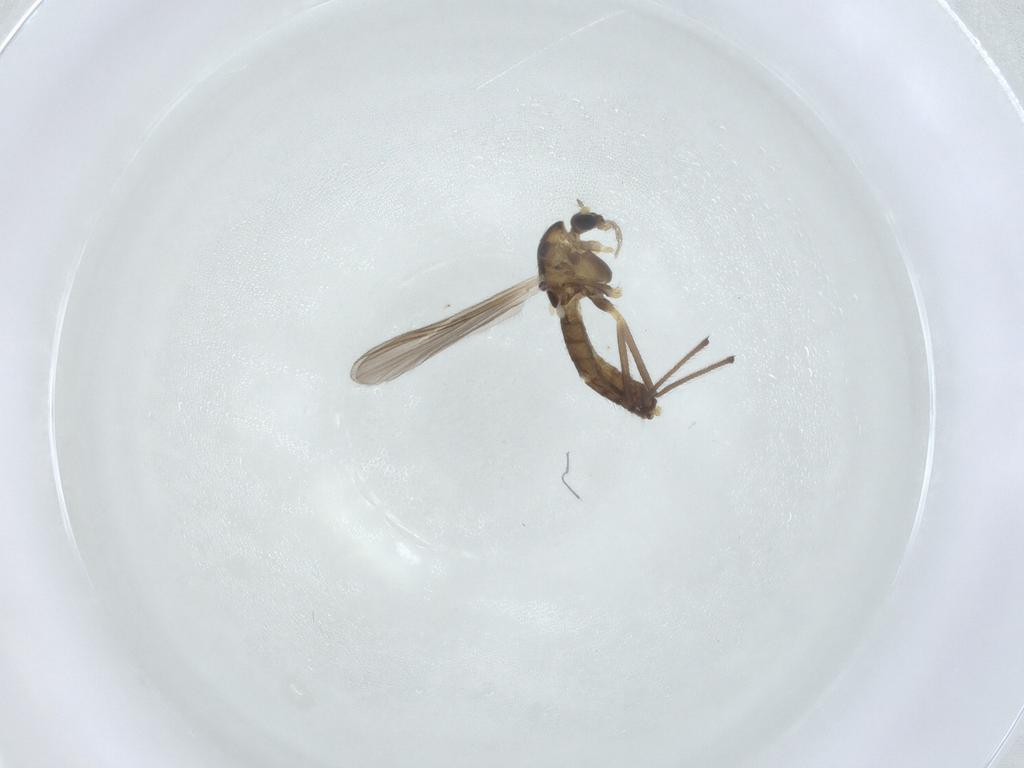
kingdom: Animalia
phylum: Arthropoda
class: Insecta
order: Diptera
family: Chironomidae
